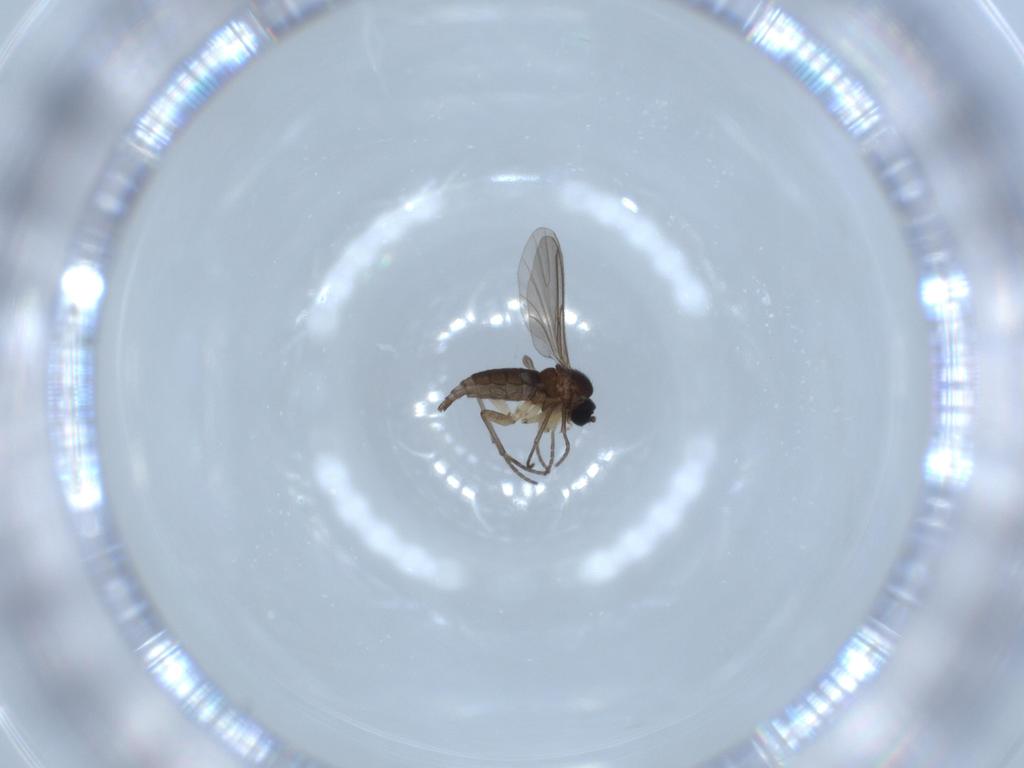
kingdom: Animalia
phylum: Arthropoda
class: Insecta
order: Diptera
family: Sciaridae
